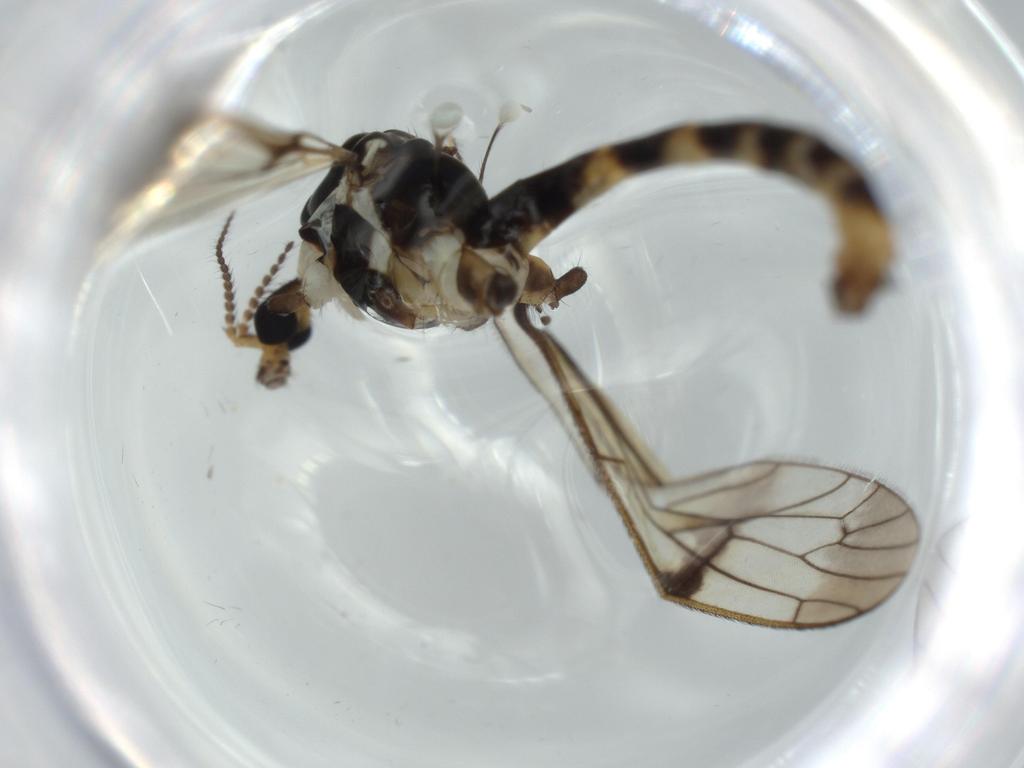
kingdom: Animalia
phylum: Arthropoda
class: Insecta
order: Diptera
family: Limoniidae
